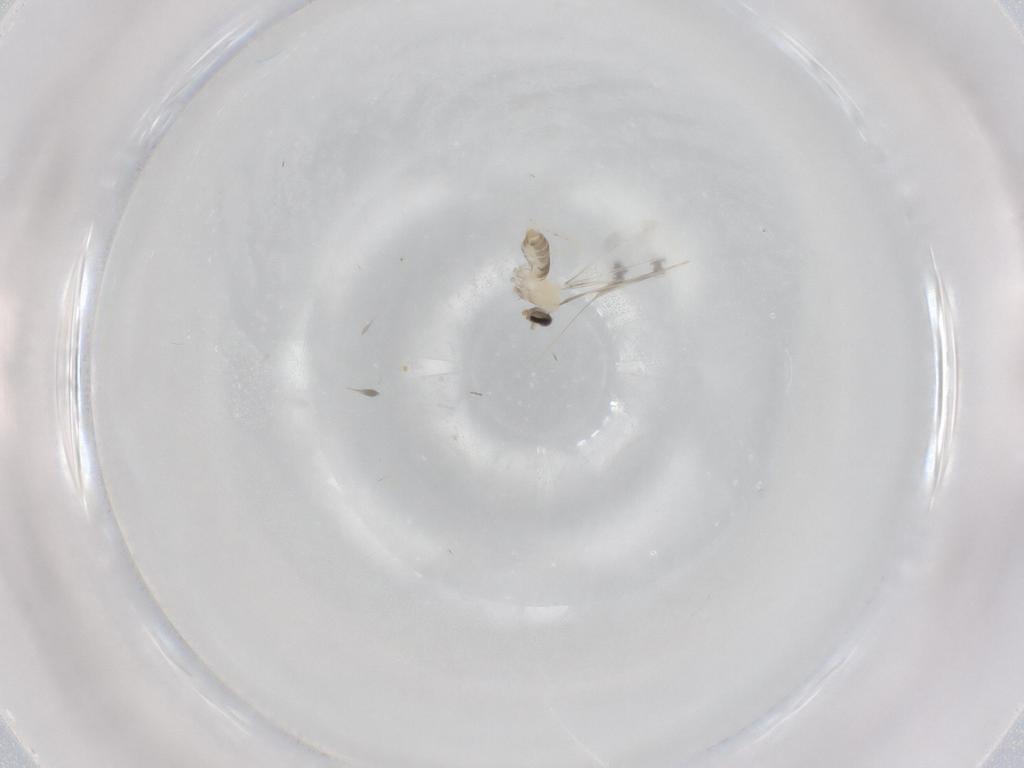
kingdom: Animalia
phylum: Arthropoda
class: Insecta
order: Diptera
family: Cecidomyiidae
